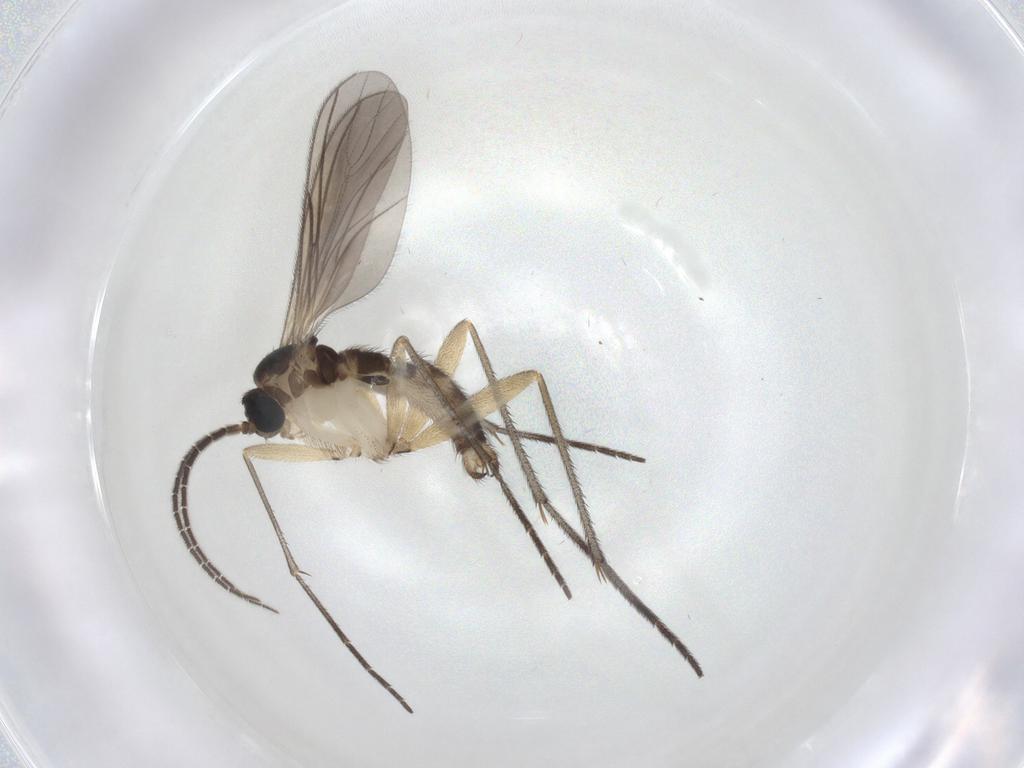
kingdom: Animalia
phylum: Arthropoda
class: Insecta
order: Diptera
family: Sciaridae
